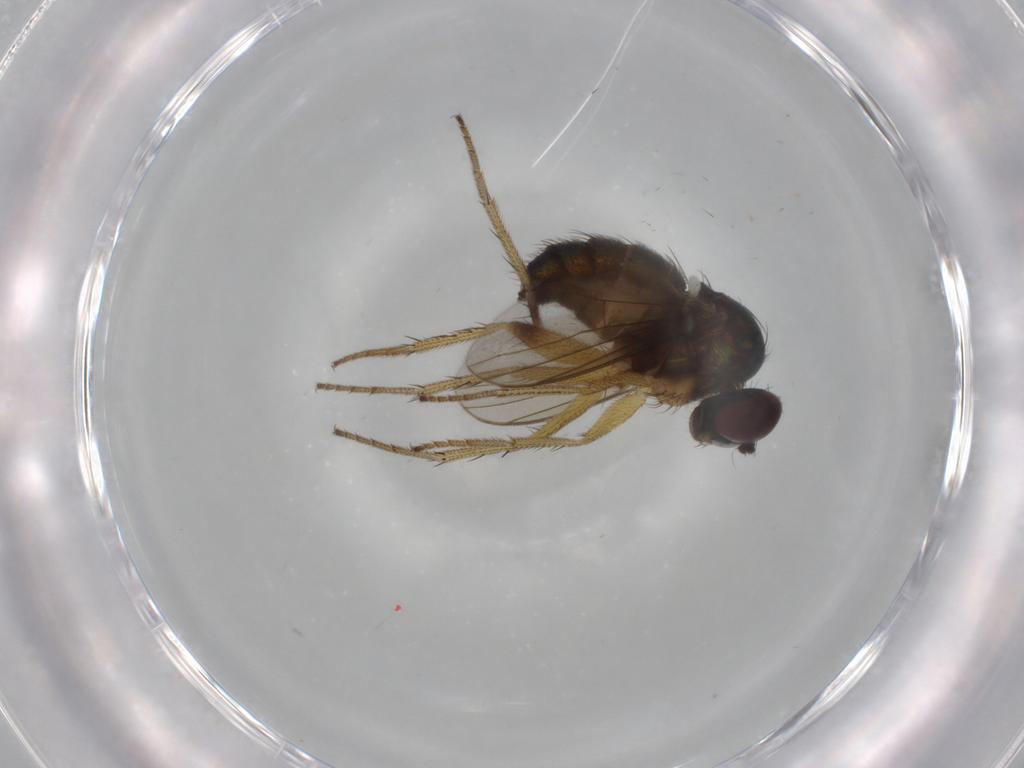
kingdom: Animalia
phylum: Arthropoda
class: Insecta
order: Diptera
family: Dolichopodidae
